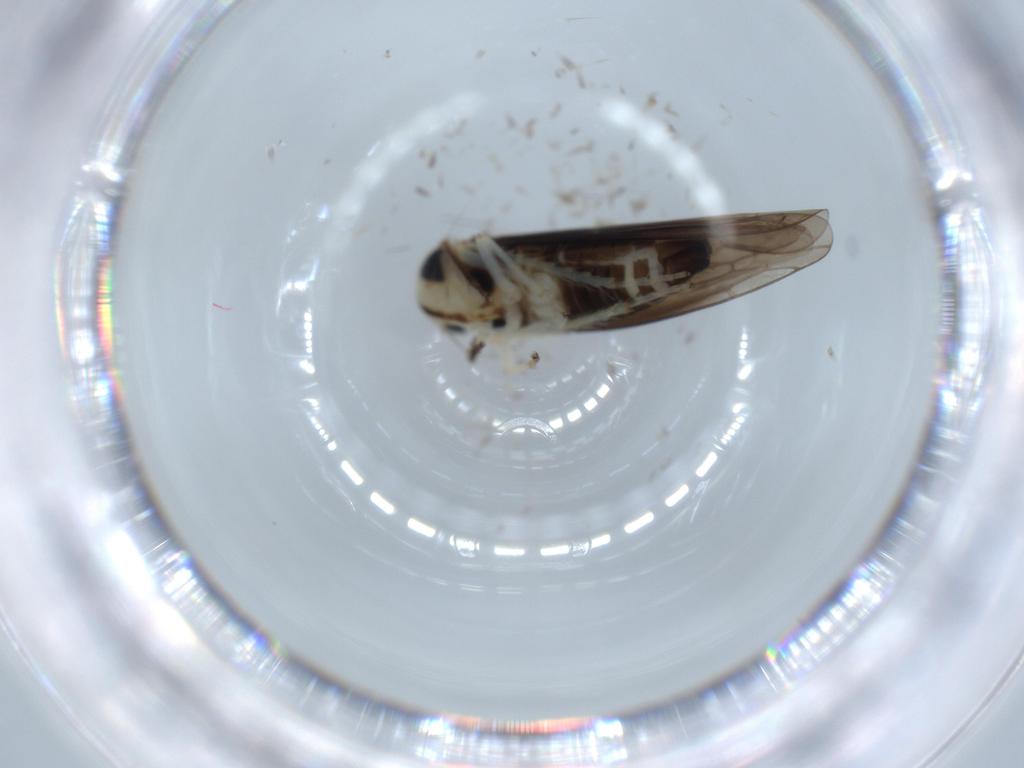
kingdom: Animalia
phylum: Arthropoda
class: Insecta
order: Hemiptera
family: Cicadellidae
